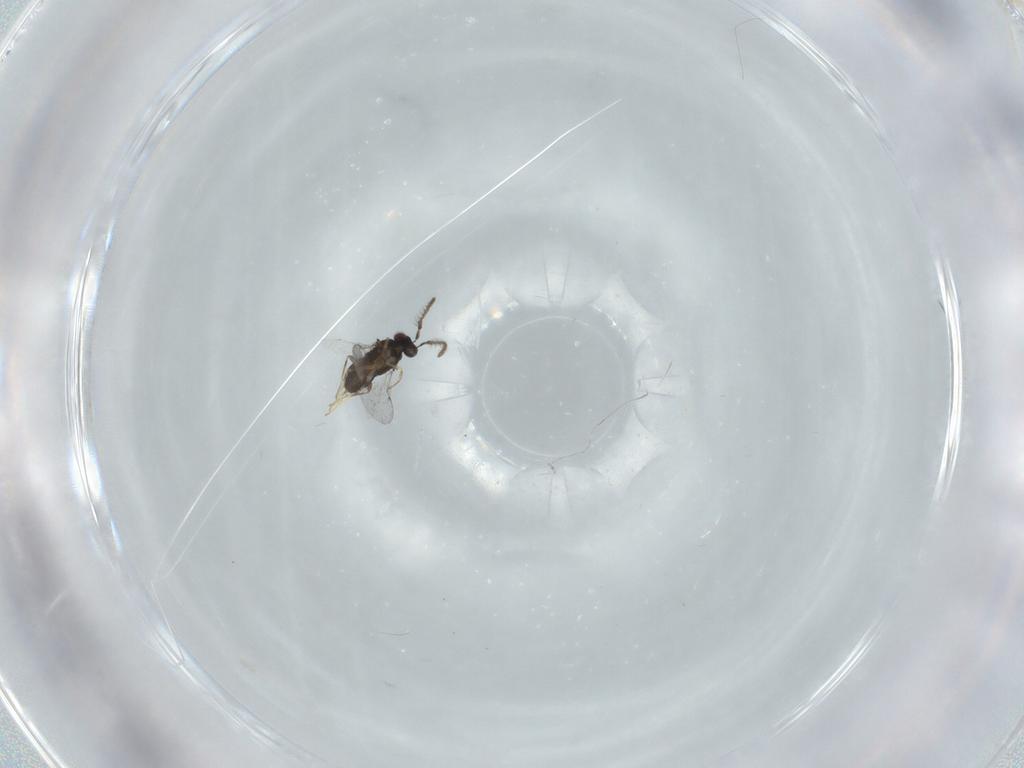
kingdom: Animalia
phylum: Arthropoda
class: Insecta
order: Hymenoptera
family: Encyrtidae
